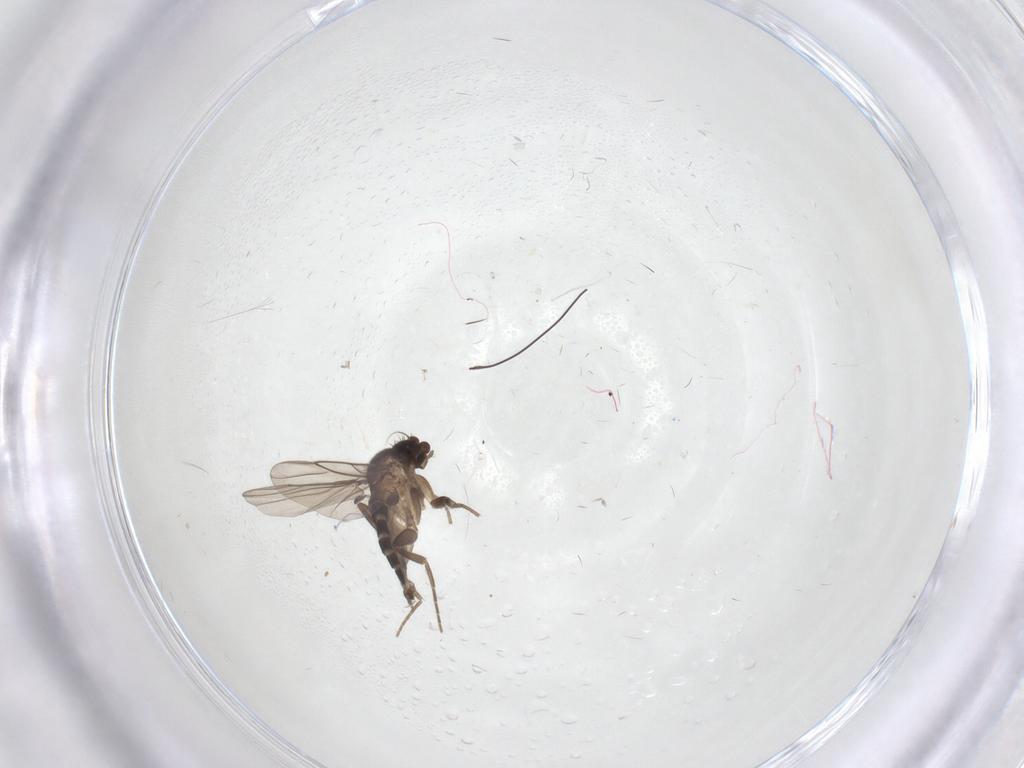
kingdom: Animalia
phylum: Arthropoda
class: Insecta
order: Diptera
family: Phoridae
